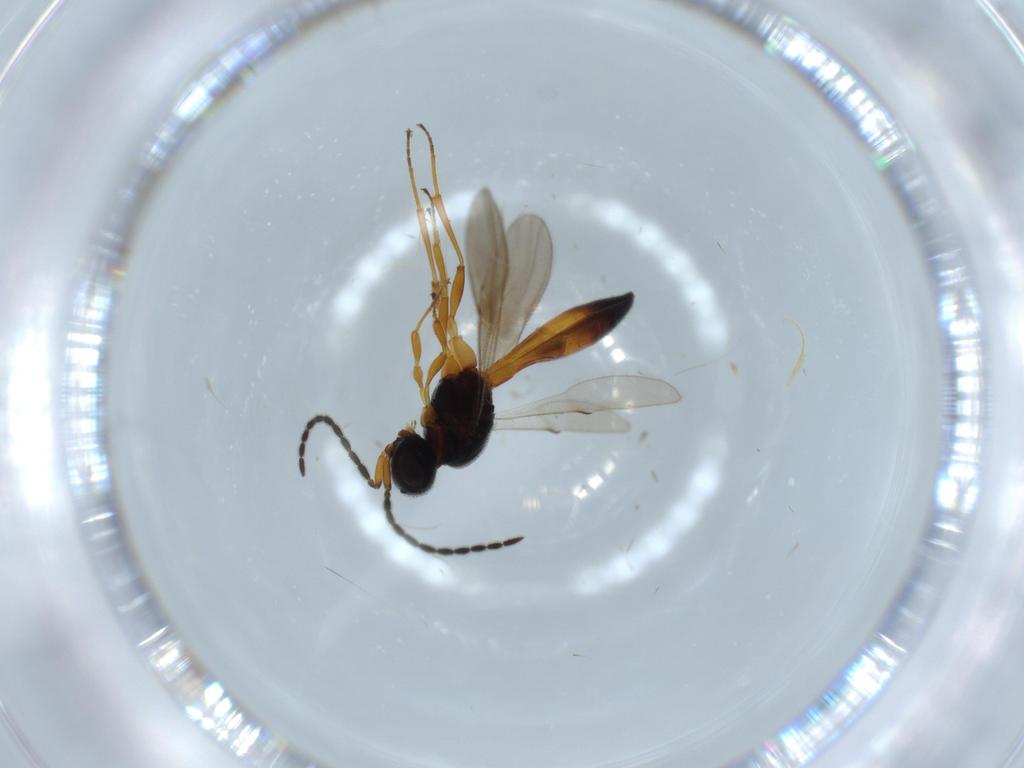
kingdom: Animalia
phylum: Arthropoda
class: Insecta
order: Hymenoptera
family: Scelionidae
